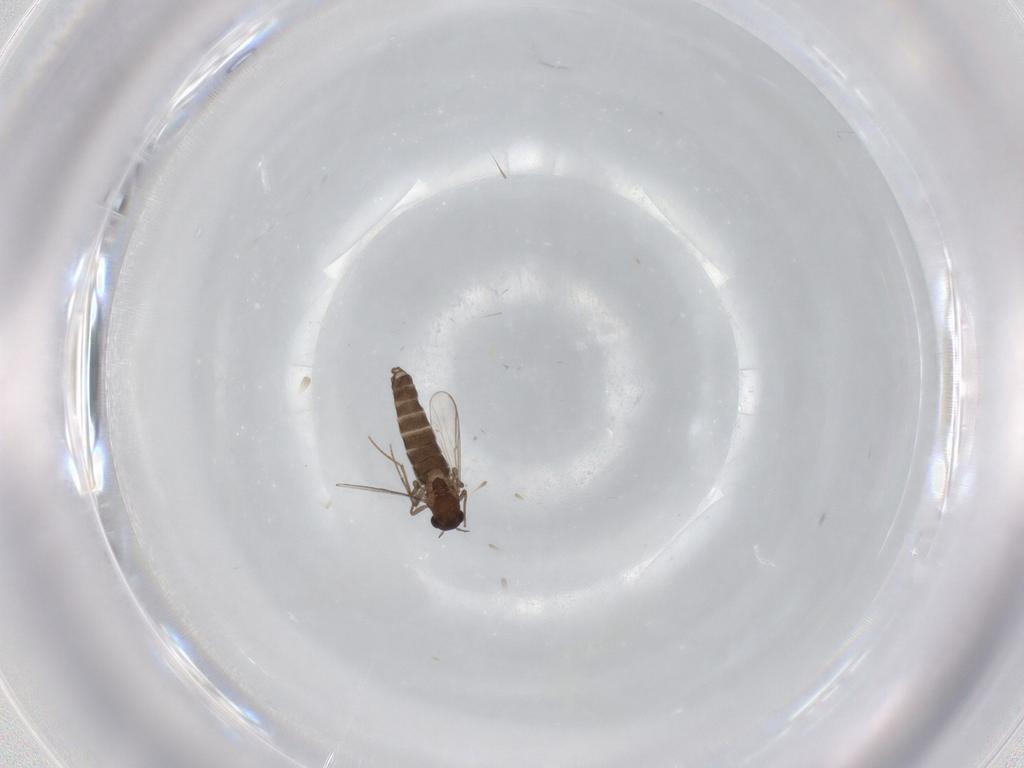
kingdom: Animalia
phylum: Arthropoda
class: Insecta
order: Diptera
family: Chironomidae
